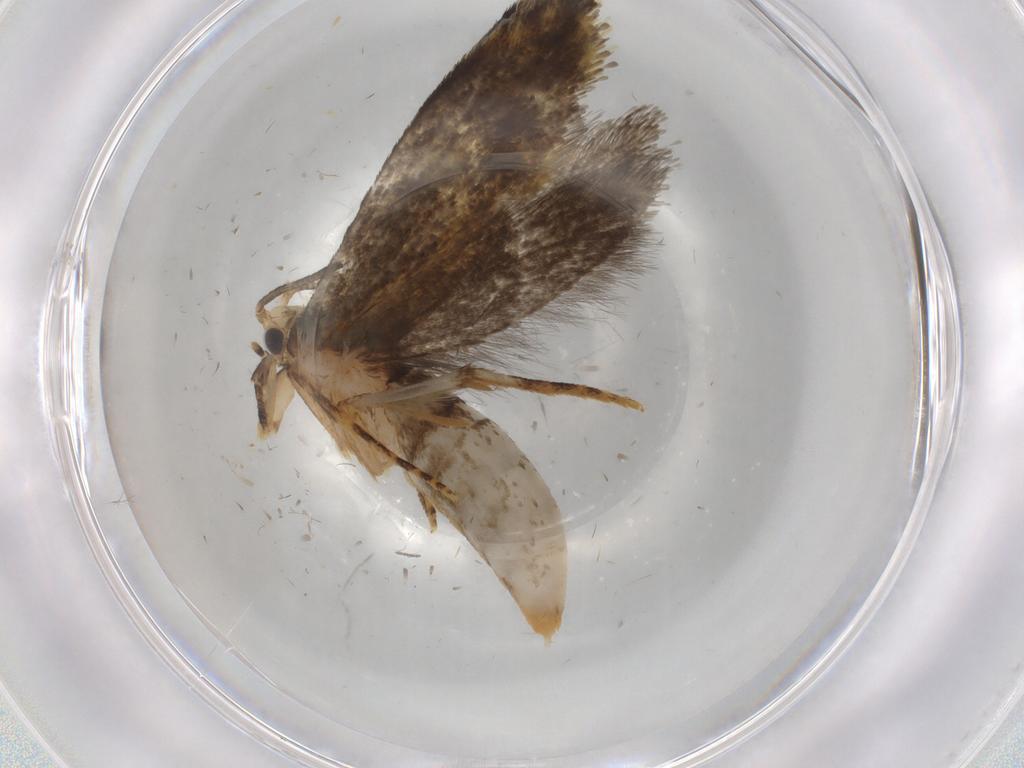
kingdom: Animalia
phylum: Arthropoda
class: Insecta
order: Lepidoptera
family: Tineidae
